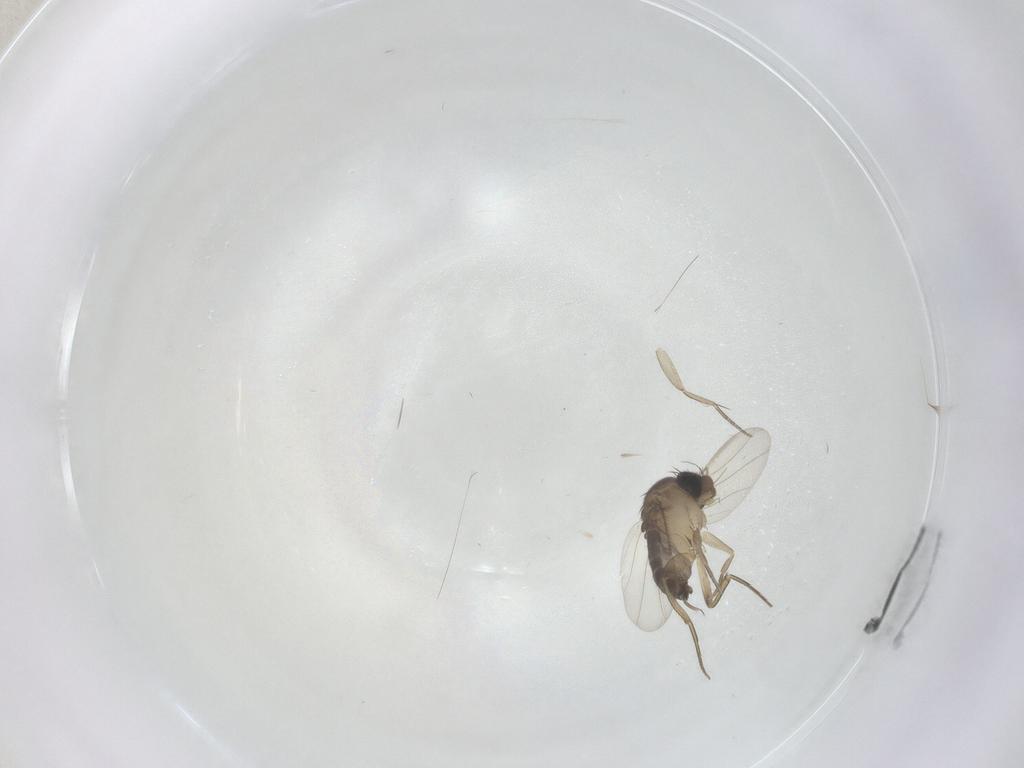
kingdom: Animalia
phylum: Arthropoda
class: Insecta
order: Diptera
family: Phoridae
